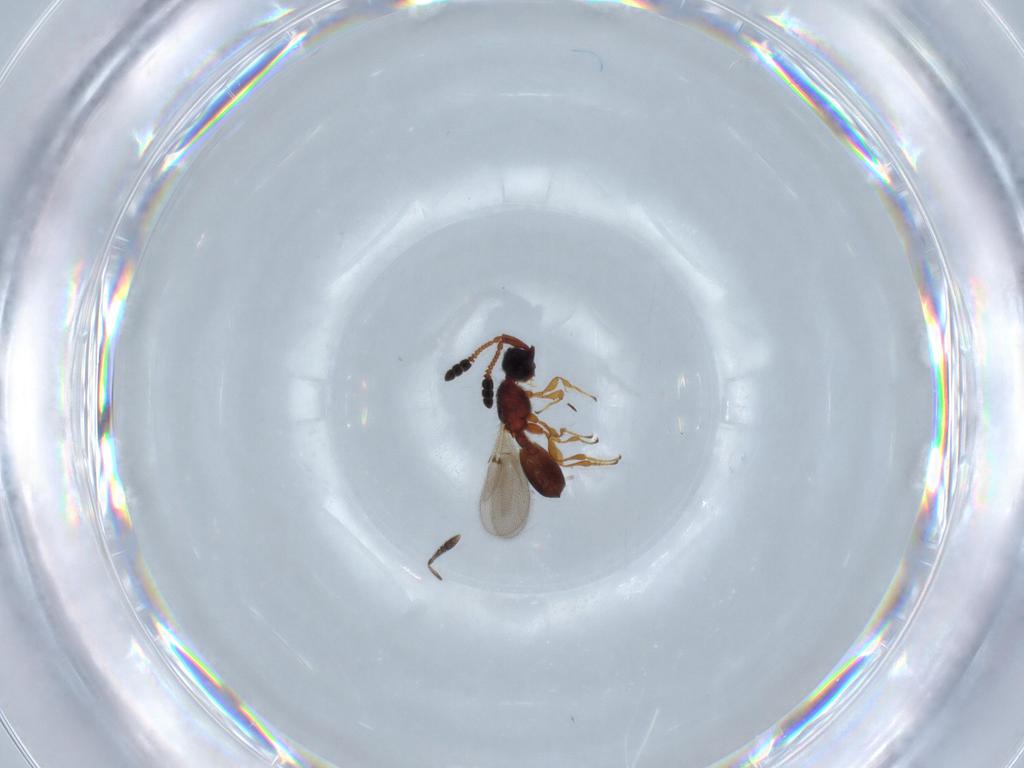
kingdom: Animalia
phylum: Arthropoda
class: Insecta
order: Hymenoptera
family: Diapriidae
